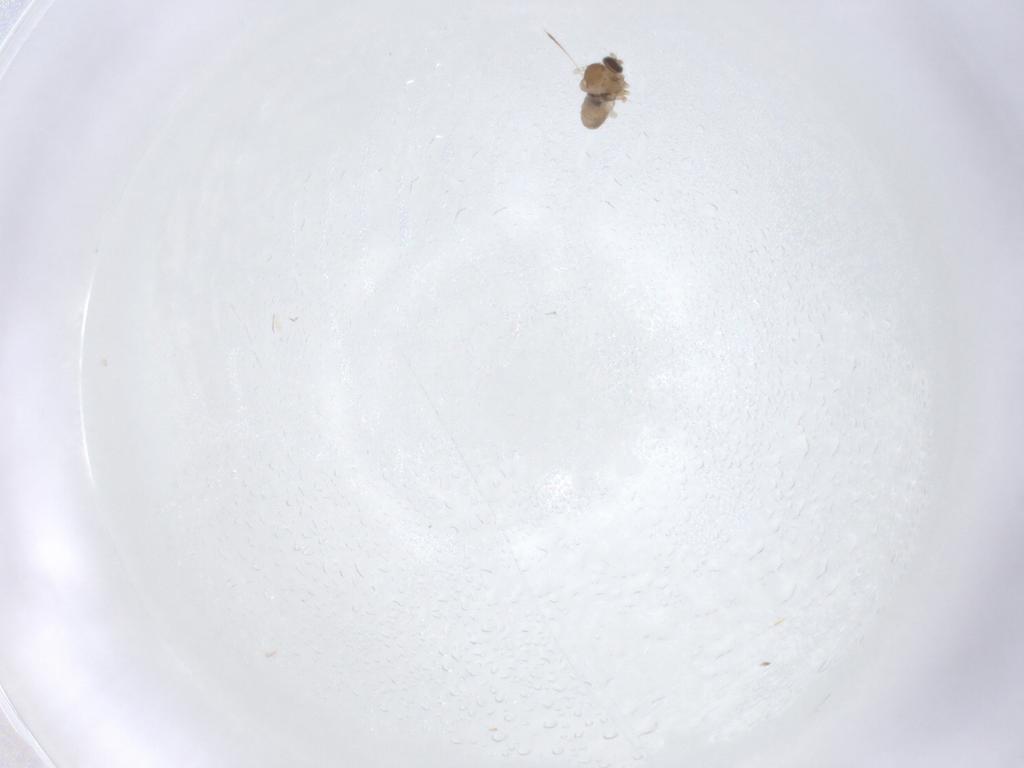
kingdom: Animalia
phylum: Arthropoda
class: Insecta
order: Diptera
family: Cecidomyiidae
